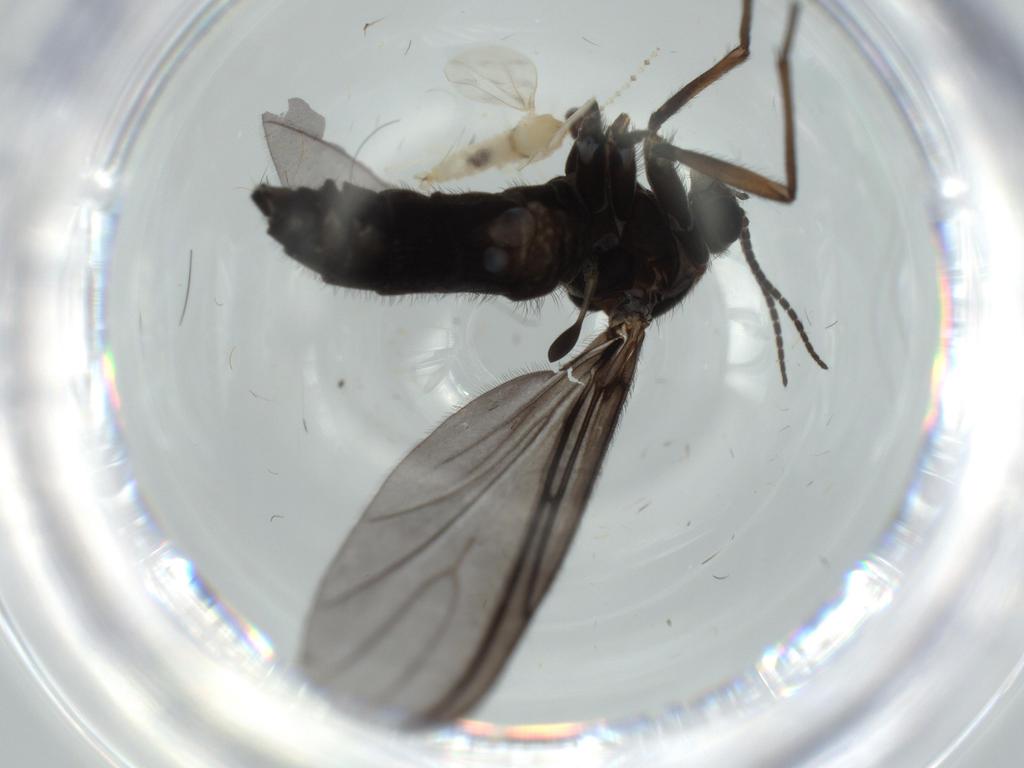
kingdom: Animalia
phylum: Arthropoda
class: Insecta
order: Diptera
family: Sciaridae
